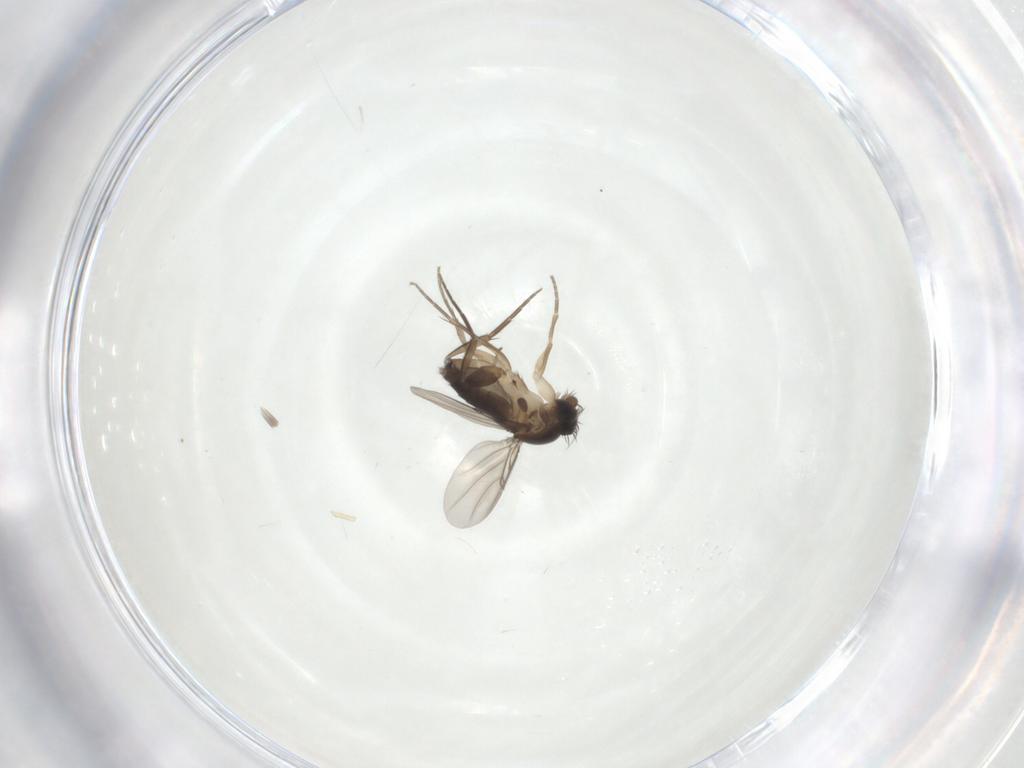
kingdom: Animalia
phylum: Arthropoda
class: Insecta
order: Diptera
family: Phoridae
